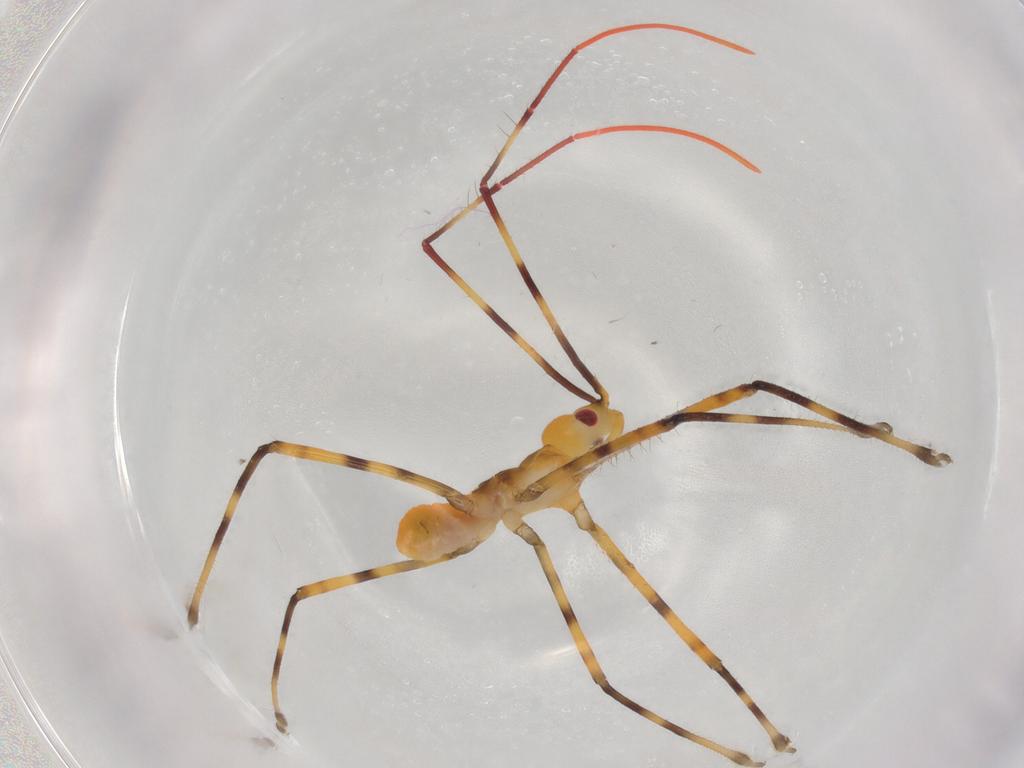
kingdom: Animalia
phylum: Arthropoda
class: Insecta
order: Hemiptera
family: Reduviidae
